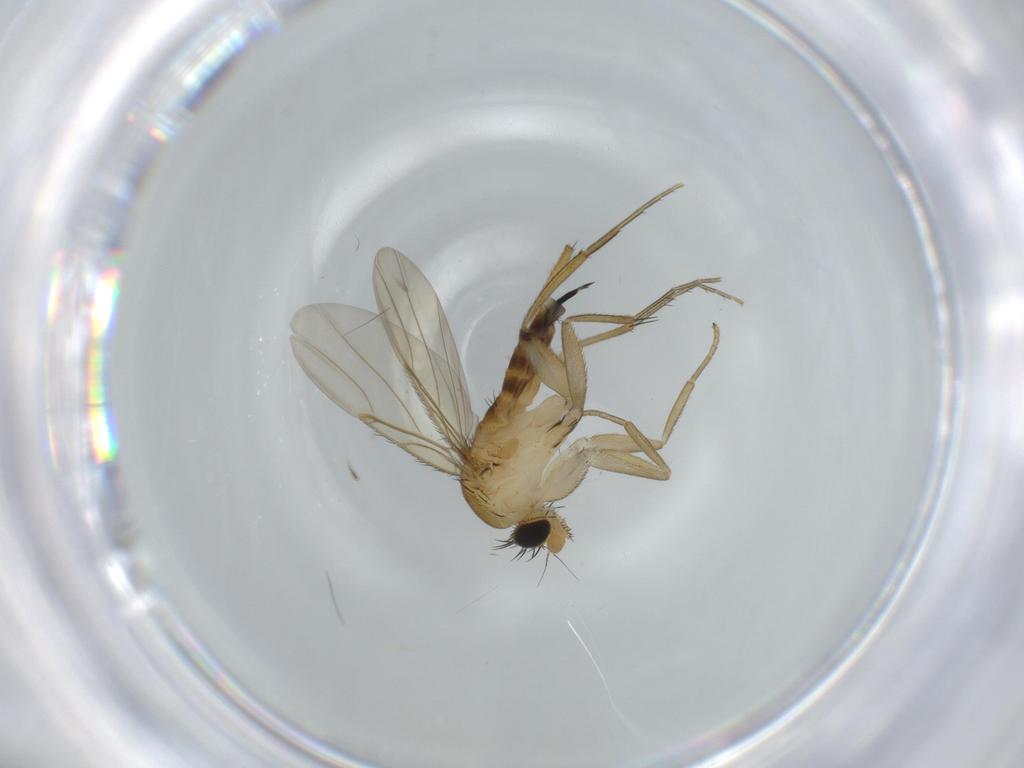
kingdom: Animalia
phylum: Arthropoda
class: Insecta
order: Diptera
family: Phoridae
